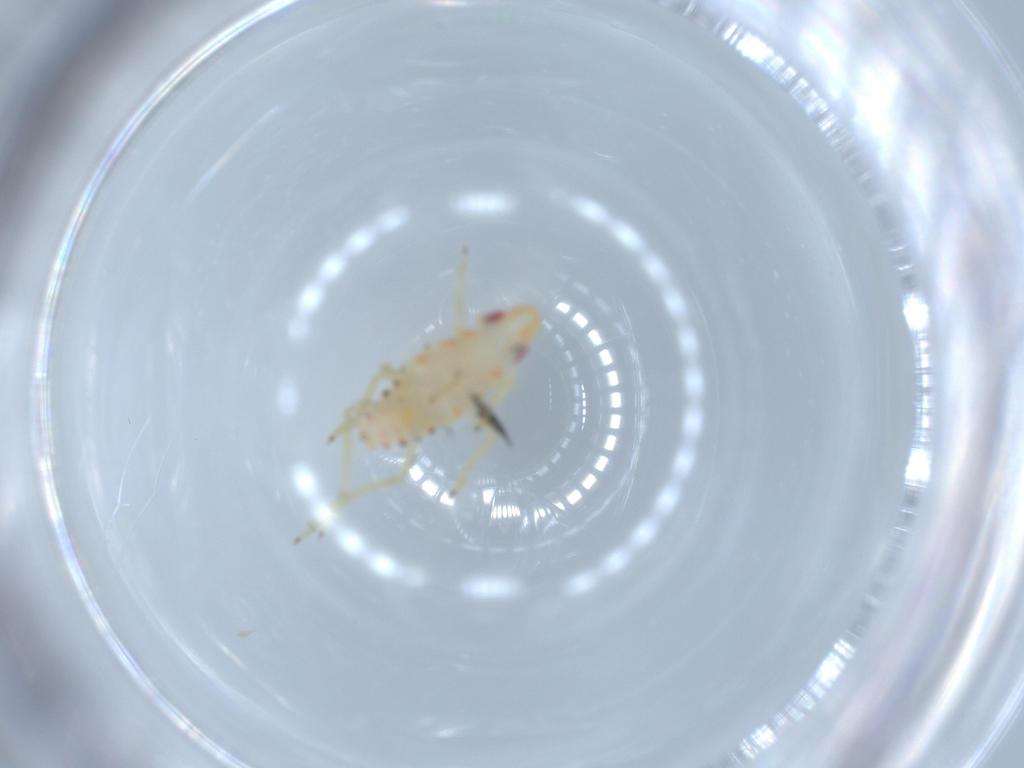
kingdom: Animalia
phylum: Arthropoda
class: Insecta
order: Hemiptera
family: Tropiduchidae
